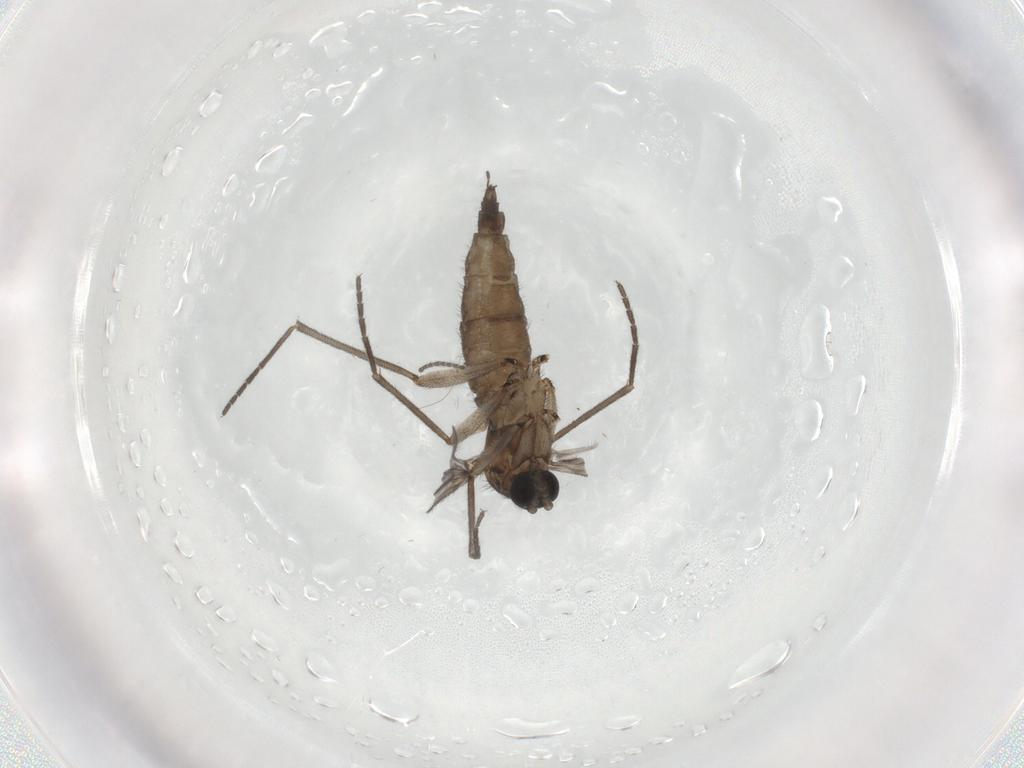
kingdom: Animalia
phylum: Arthropoda
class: Insecta
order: Diptera
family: Sciaridae
